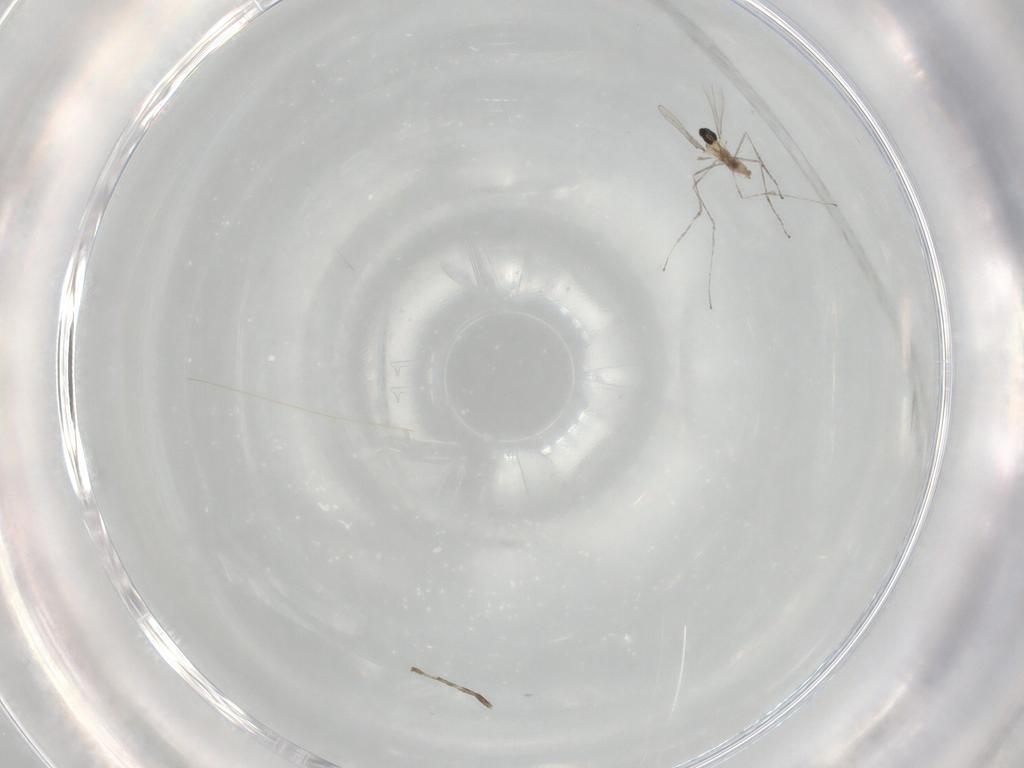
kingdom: Animalia
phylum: Arthropoda
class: Insecta
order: Diptera
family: Cecidomyiidae
